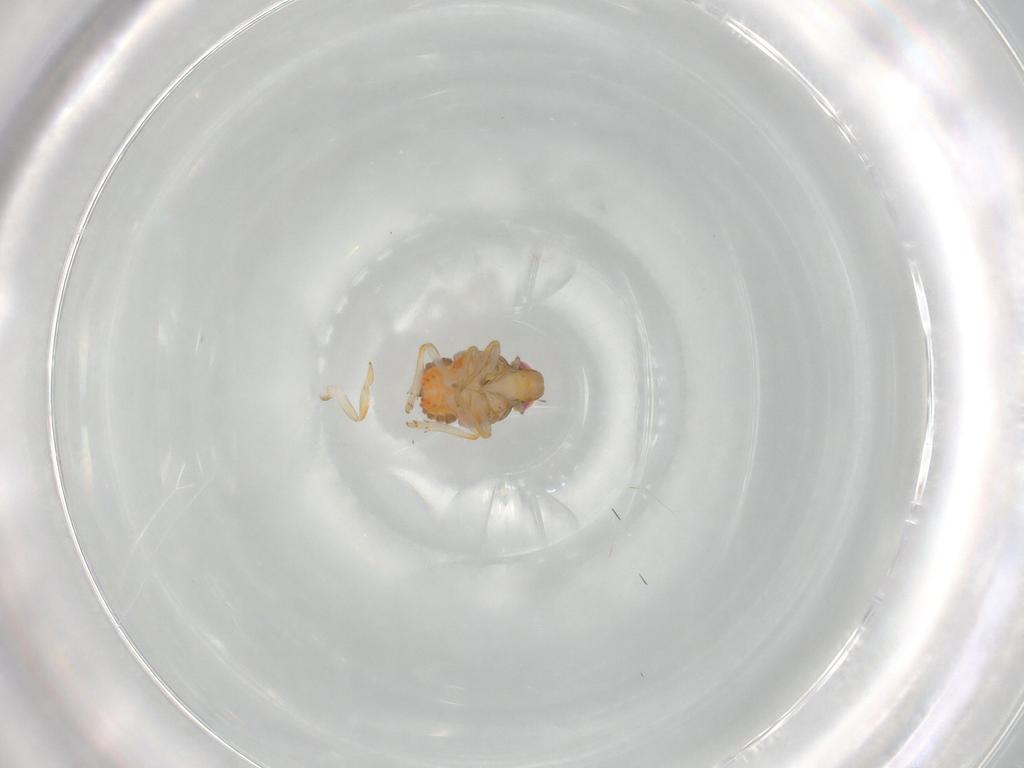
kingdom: Animalia
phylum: Arthropoda
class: Insecta
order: Hemiptera
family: Issidae
